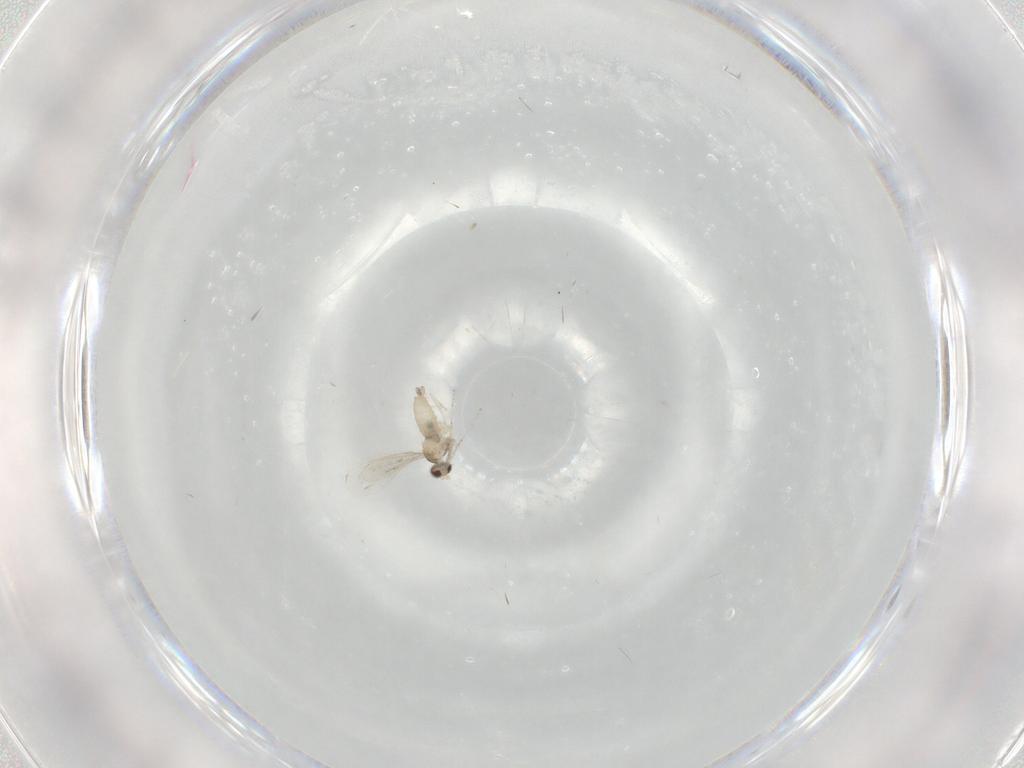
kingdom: Animalia
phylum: Arthropoda
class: Insecta
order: Diptera
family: Cecidomyiidae
